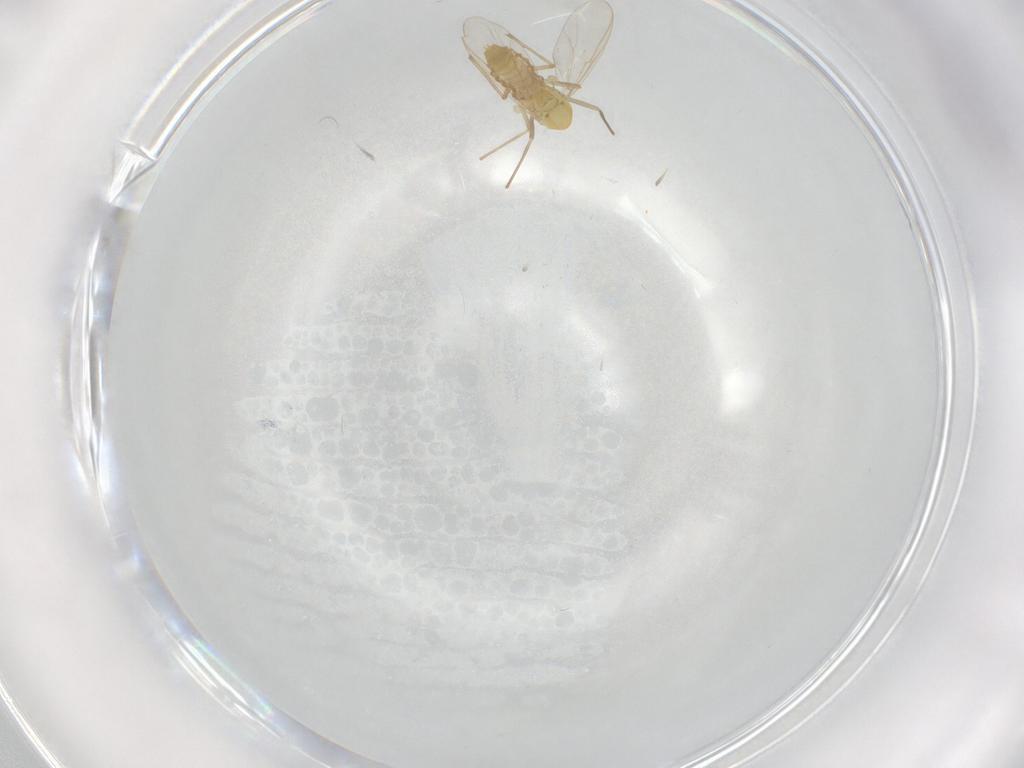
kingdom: Animalia
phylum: Arthropoda
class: Insecta
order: Diptera
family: Chironomidae
